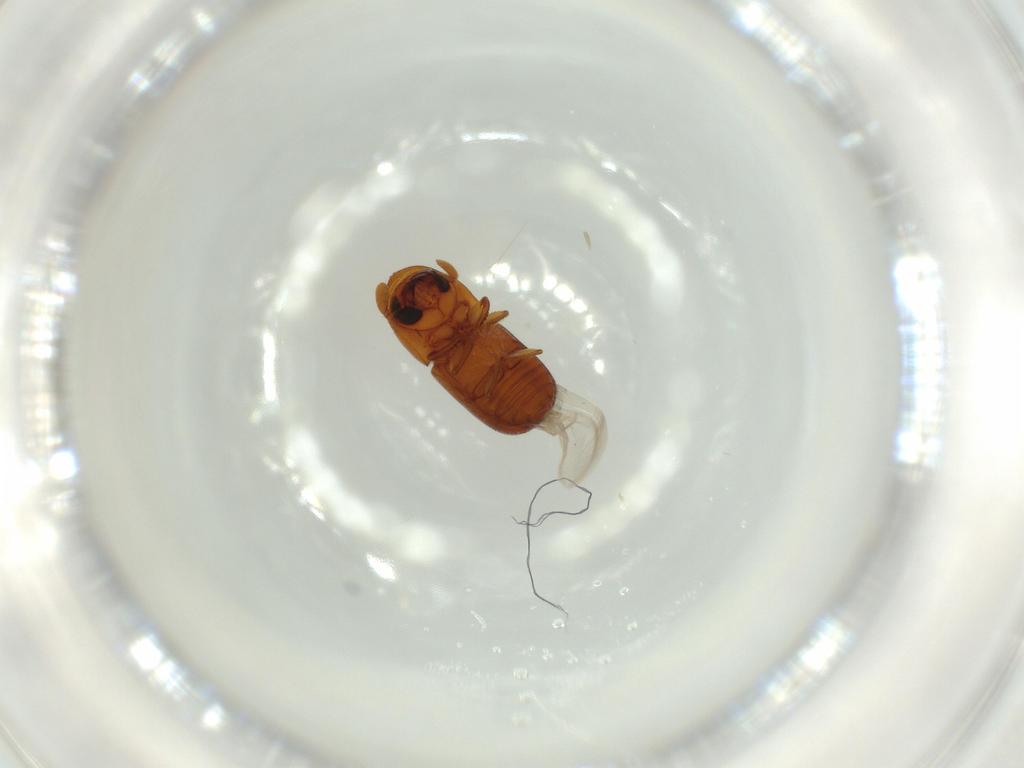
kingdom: Animalia
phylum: Arthropoda
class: Insecta
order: Coleoptera
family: Curculionidae
